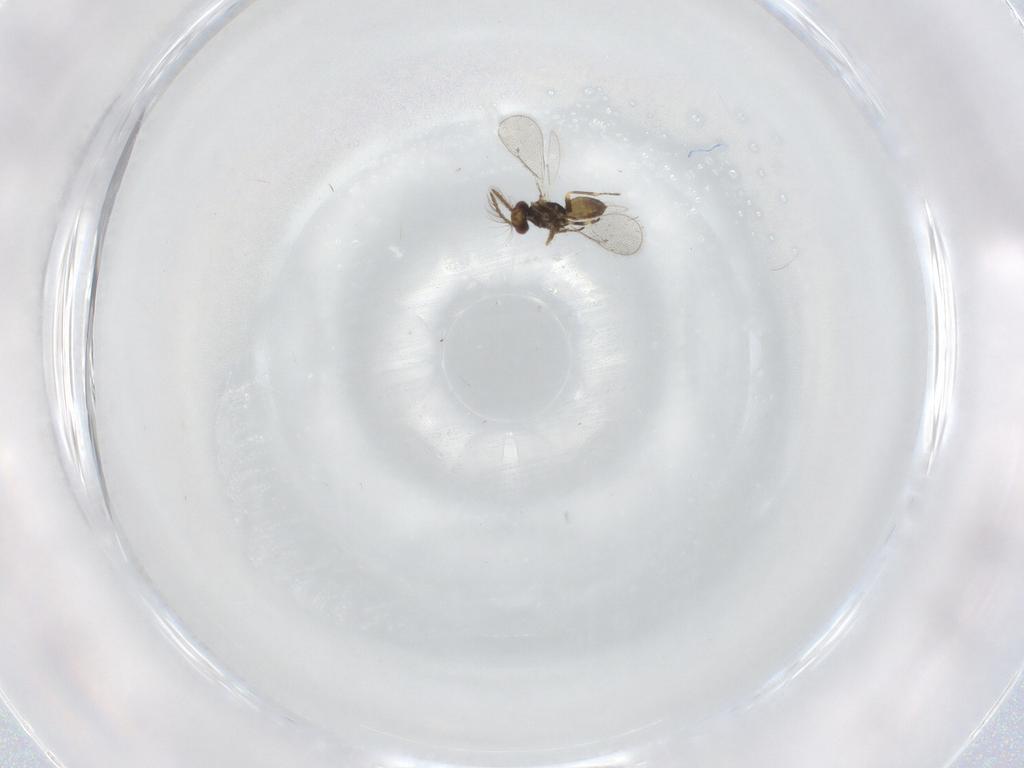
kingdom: Animalia
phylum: Arthropoda
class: Insecta
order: Hymenoptera
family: Eulophidae
